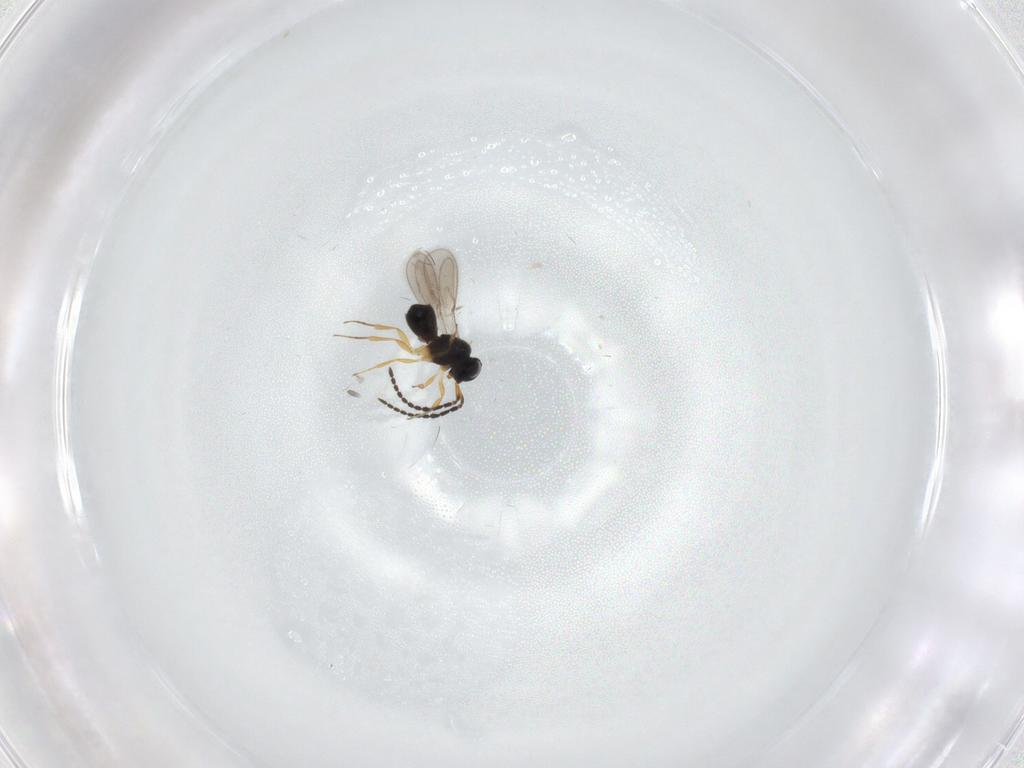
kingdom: Animalia
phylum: Arthropoda
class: Insecta
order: Hymenoptera
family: Scelionidae
